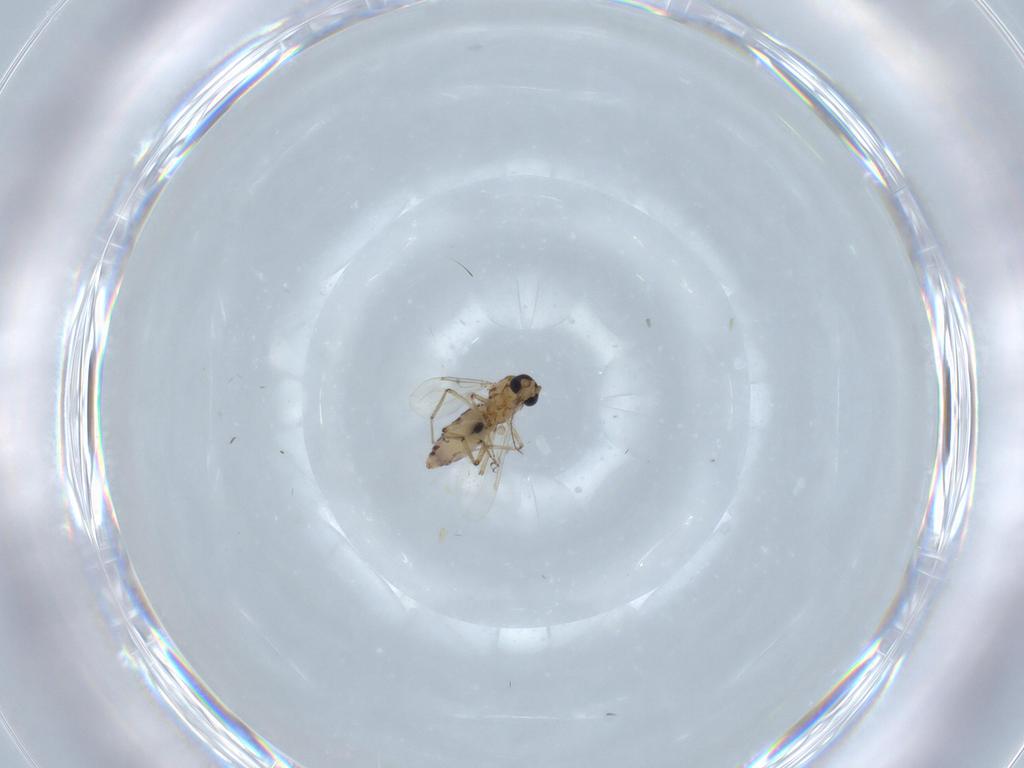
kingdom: Animalia
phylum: Arthropoda
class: Insecta
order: Diptera
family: Ceratopogonidae
